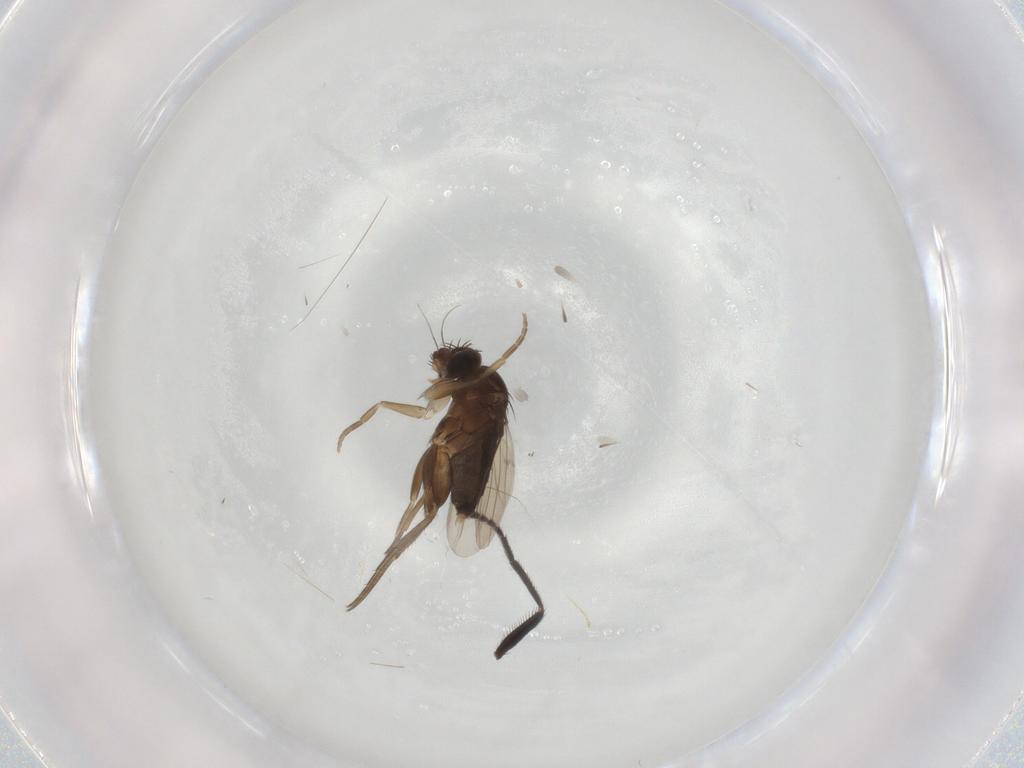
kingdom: Animalia
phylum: Arthropoda
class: Insecta
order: Diptera
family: Phoridae
